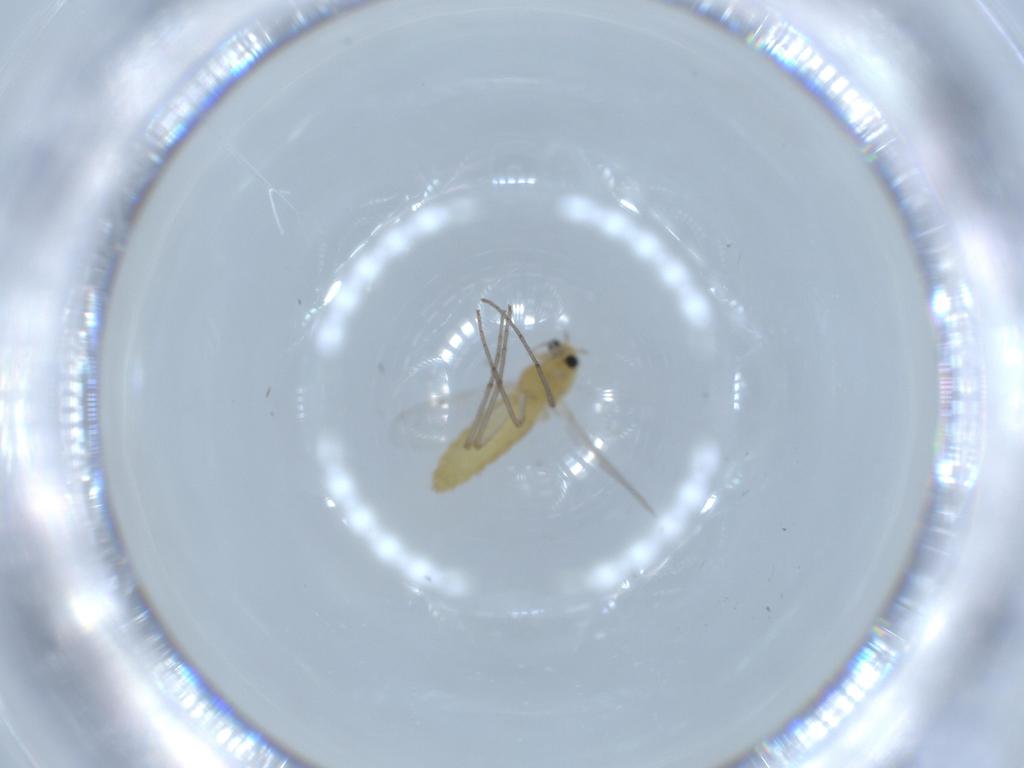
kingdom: Animalia
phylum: Arthropoda
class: Insecta
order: Diptera
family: Chironomidae
